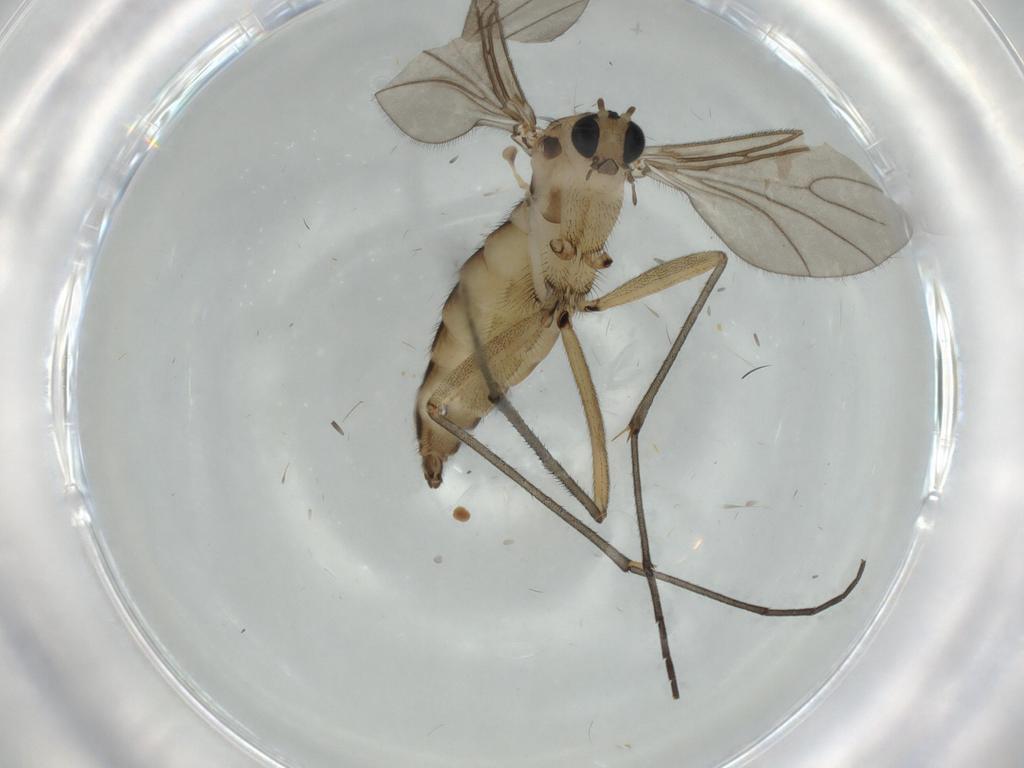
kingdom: Animalia
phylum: Arthropoda
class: Insecta
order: Diptera
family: Sciaridae
